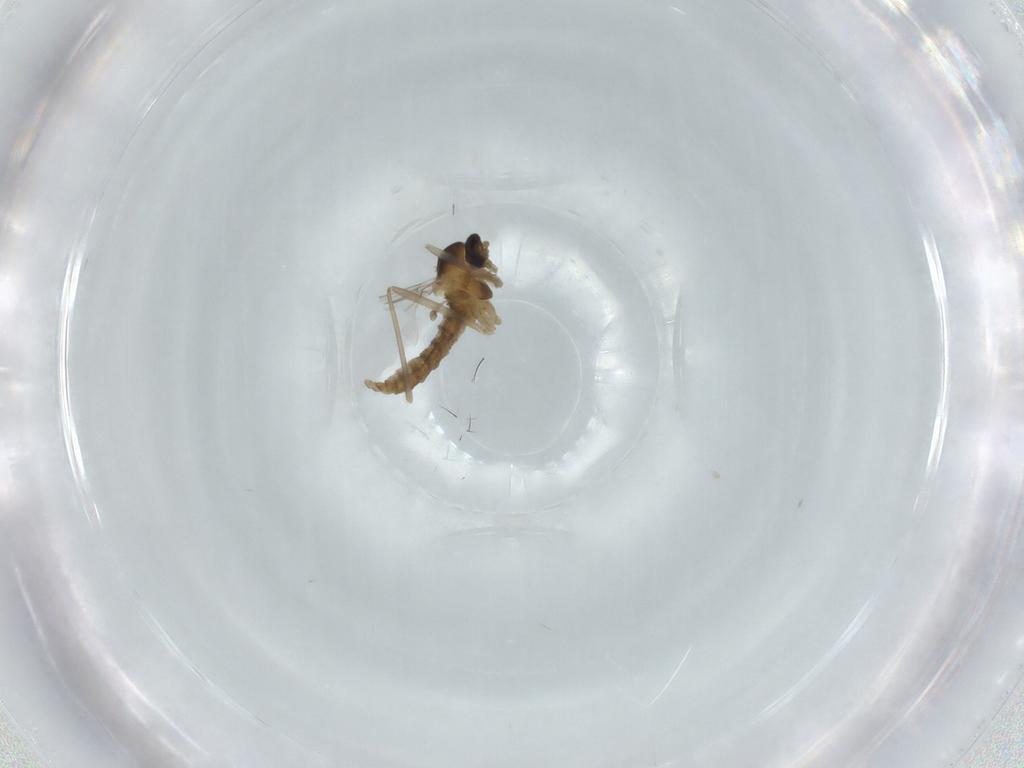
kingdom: Animalia
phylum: Arthropoda
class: Insecta
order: Diptera
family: Cecidomyiidae
